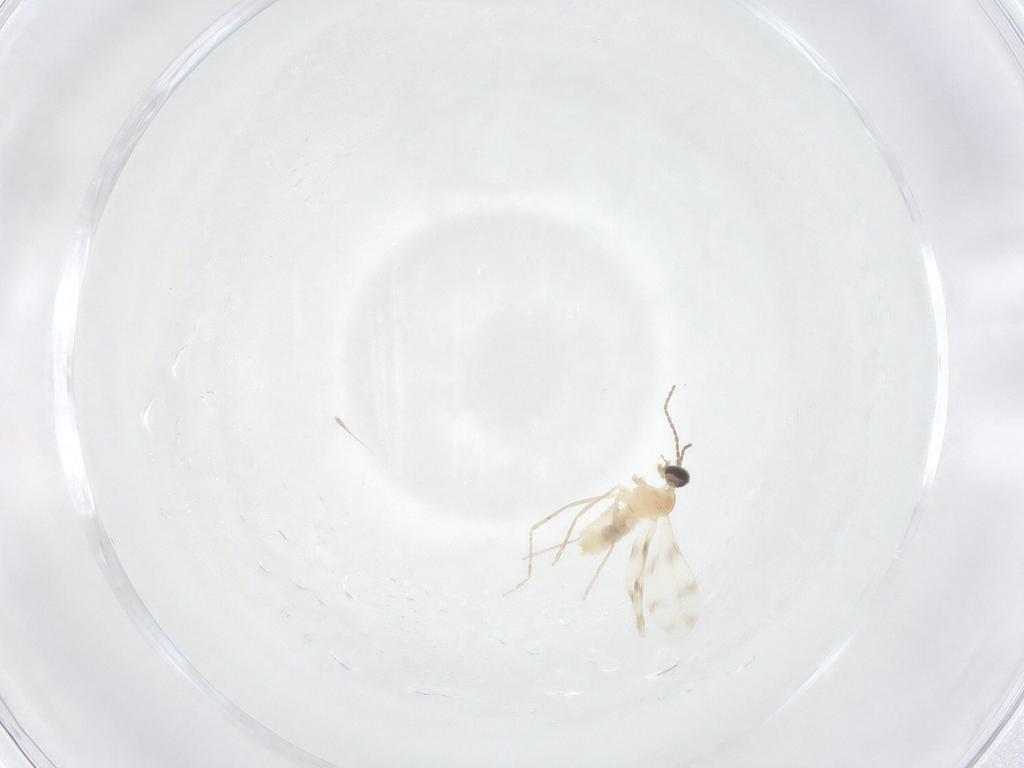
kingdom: Animalia
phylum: Arthropoda
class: Insecta
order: Diptera
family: Cecidomyiidae
